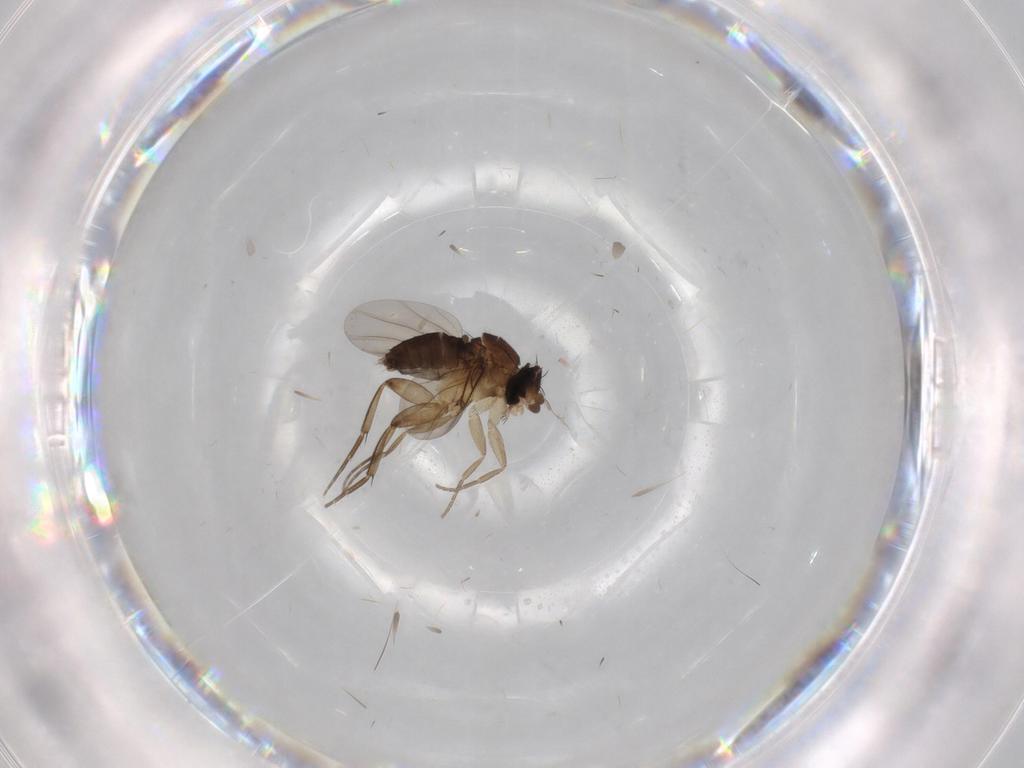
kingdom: Animalia
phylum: Arthropoda
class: Insecta
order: Diptera
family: Phoridae
